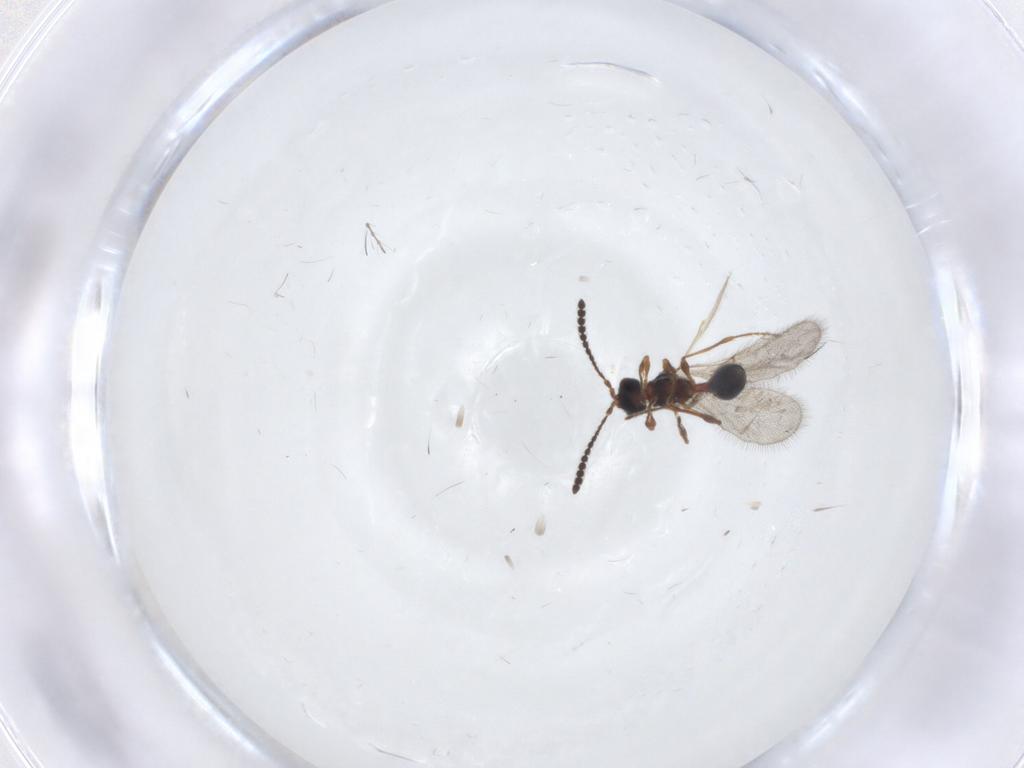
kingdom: Animalia
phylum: Arthropoda
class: Insecta
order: Hymenoptera
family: Diapriidae
